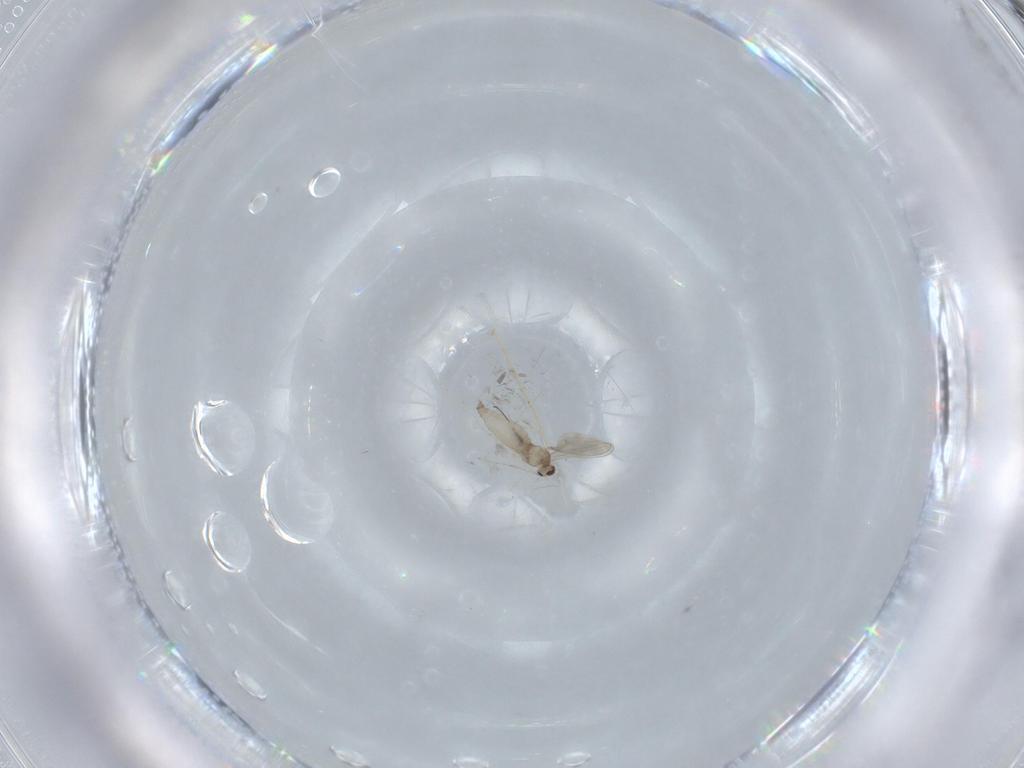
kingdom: Animalia
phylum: Arthropoda
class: Insecta
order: Diptera
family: Cecidomyiidae
